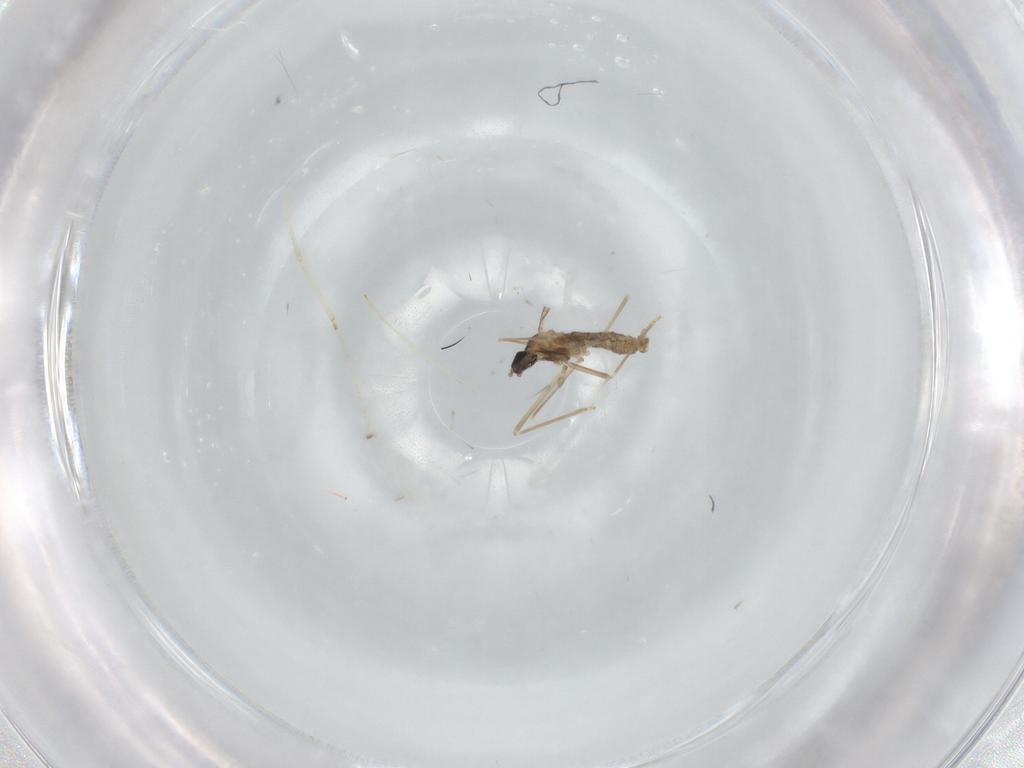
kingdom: Animalia
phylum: Arthropoda
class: Insecta
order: Diptera
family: Cecidomyiidae
